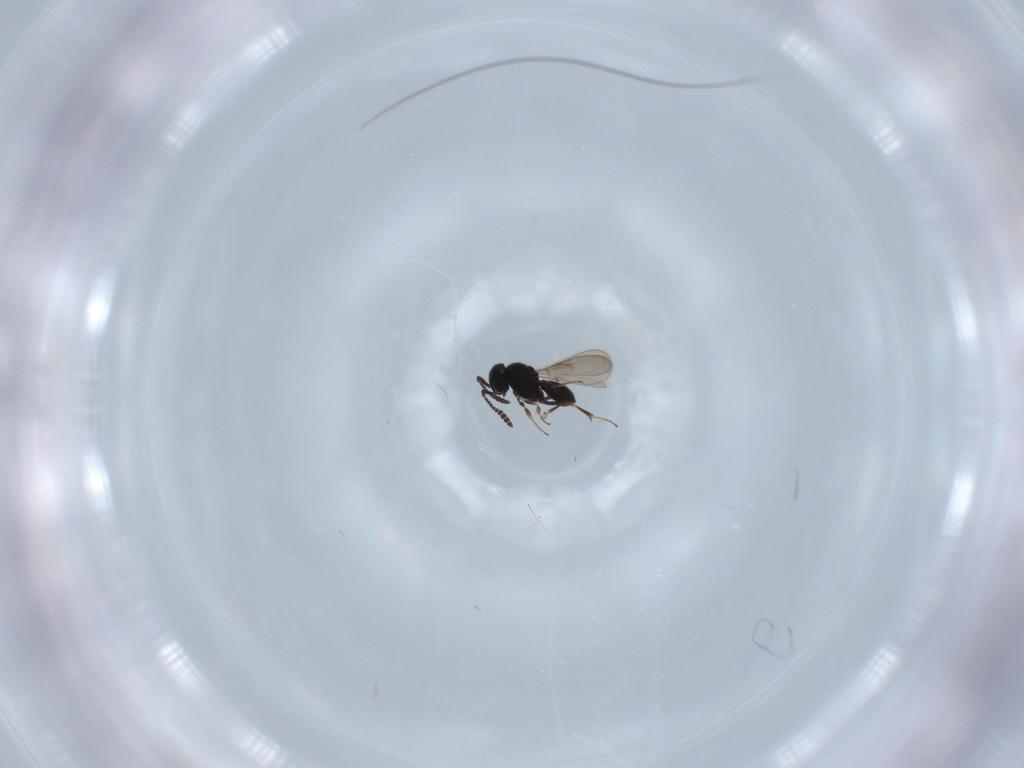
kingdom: Animalia
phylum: Arthropoda
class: Insecta
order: Hymenoptera
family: Scelionidae
